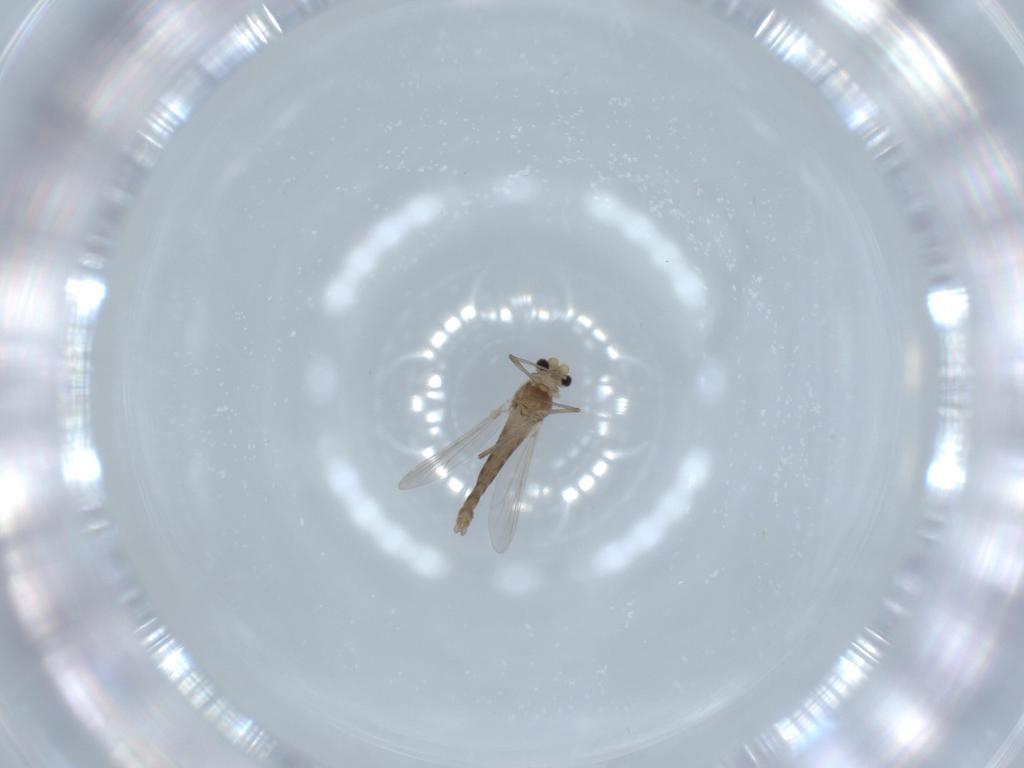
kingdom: Animalia
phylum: Arthropoda
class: Insecta
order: Diptera
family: Chironomidae
